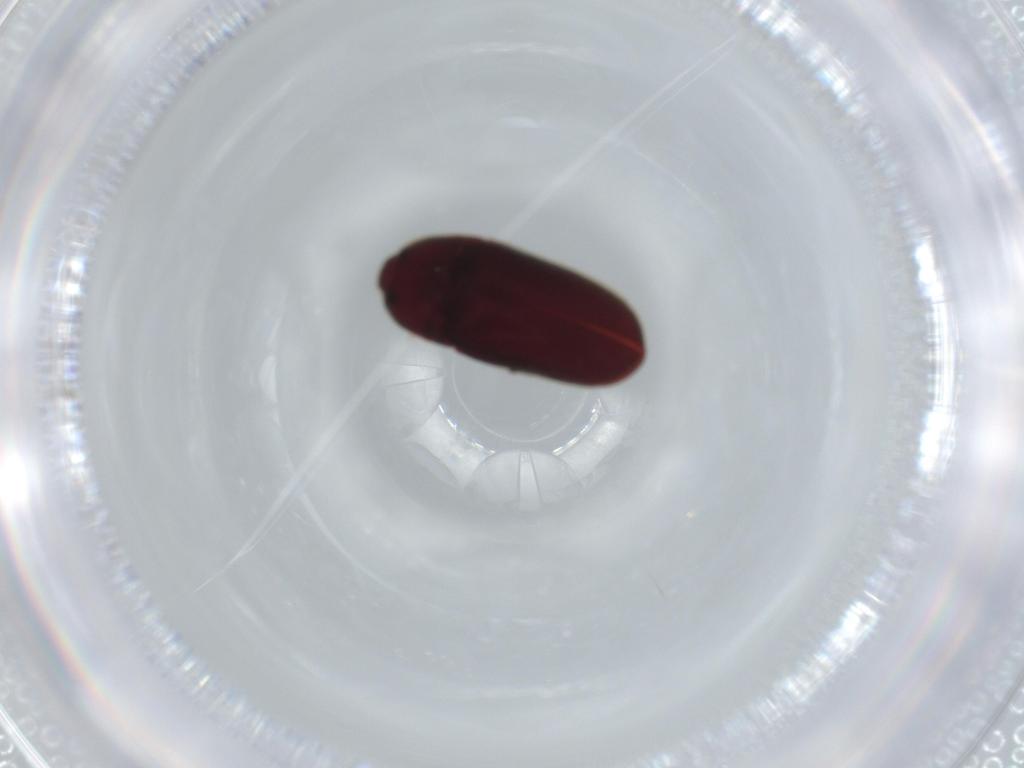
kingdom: Animalia
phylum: Arthropoda
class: Insecta
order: Coleoptera
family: Throscidae
